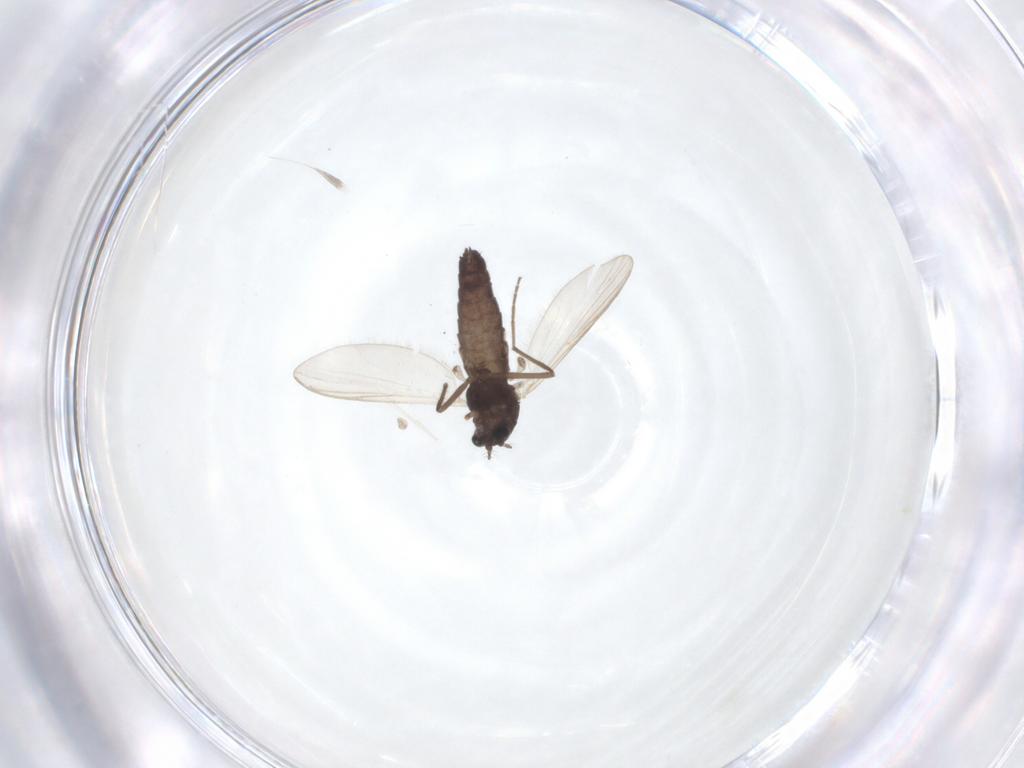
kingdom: Animalia
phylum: Arthropoda
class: Insecta
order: Diptera
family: Chironomidae
